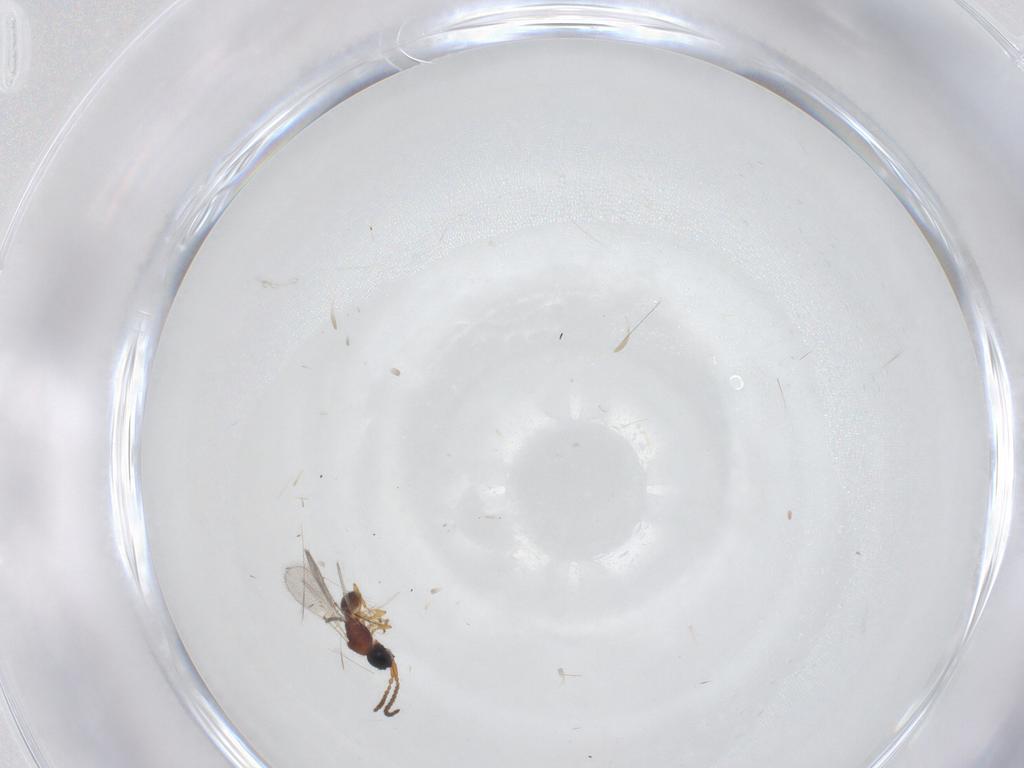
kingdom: Animalia
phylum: Arthropoda
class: Insecta
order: Hymenoptera
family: Diapriidae
